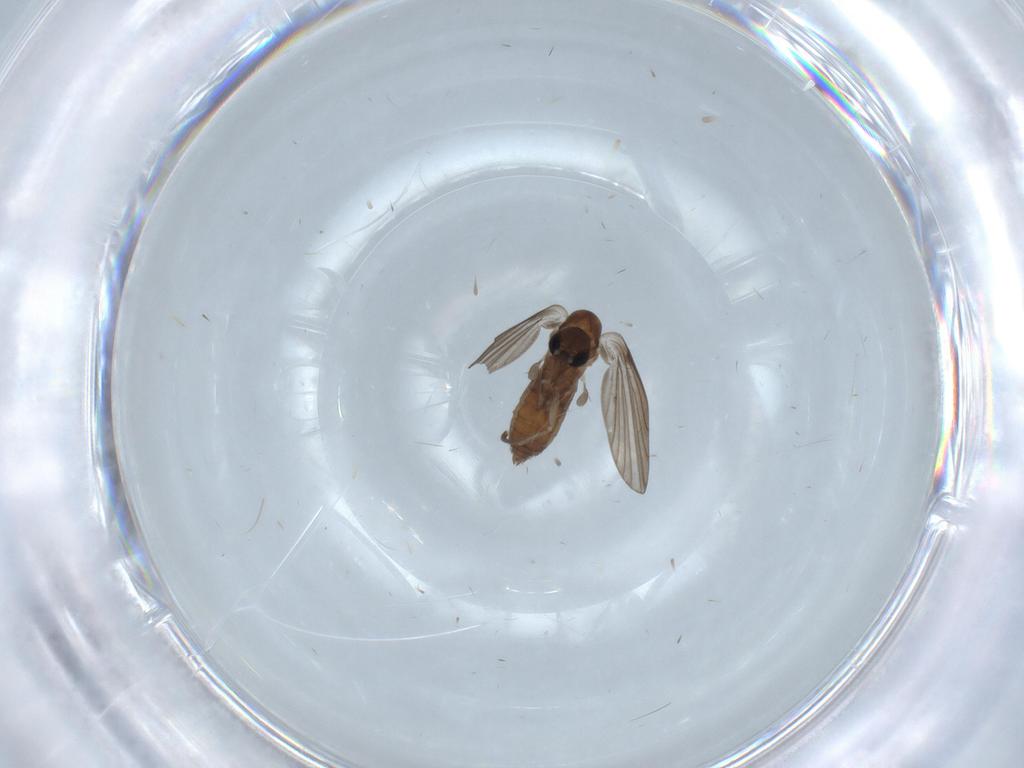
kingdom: Animalia
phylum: Arthropoda
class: Insecta
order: Diptera
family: Psychodidae
